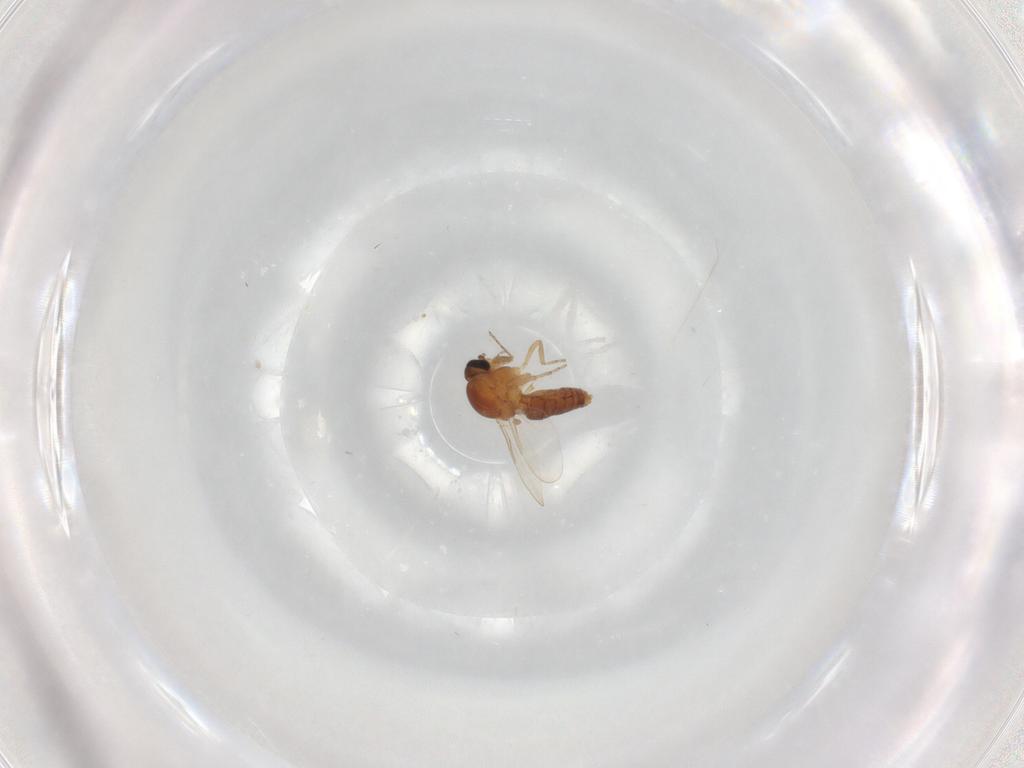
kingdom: Animalia
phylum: Arthropoda
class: Insecta
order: Diptera
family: Ceratopogonidae
